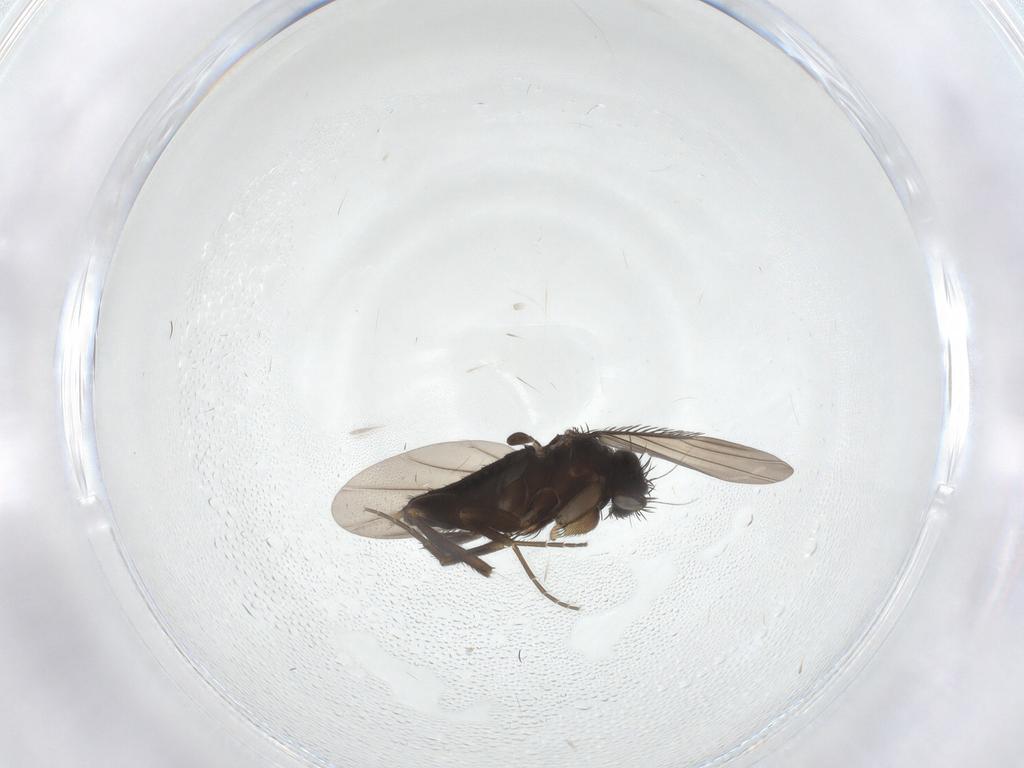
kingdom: Animalia
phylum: Arthropoda
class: Insecta
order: Diptera
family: Phoridae
